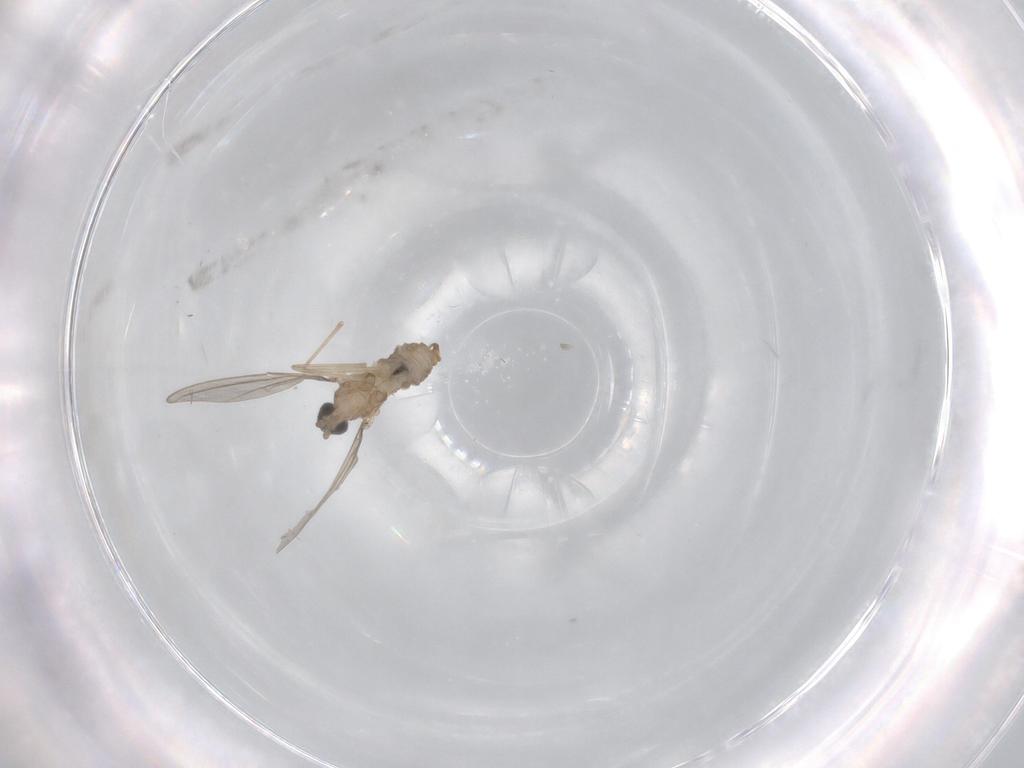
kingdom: Animalia
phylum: Arthropoda
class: Insecta
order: Diptera
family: Cecidomyiidae
